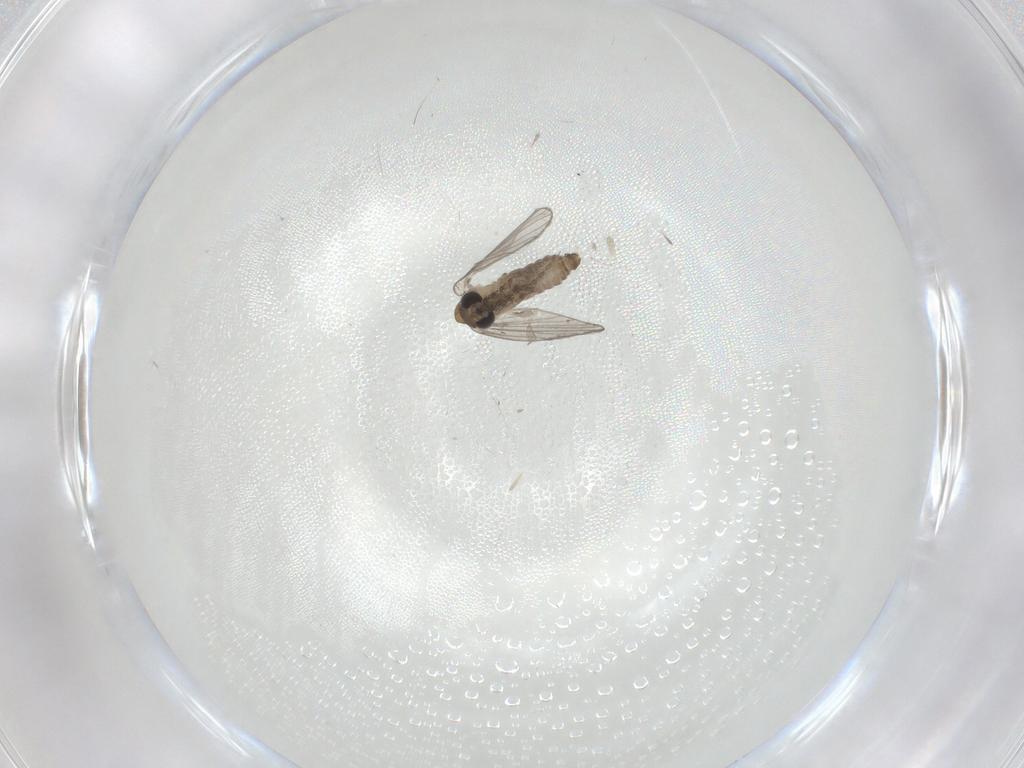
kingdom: Animalia
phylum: Arthropoda
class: Insecta
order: Diptera
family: Psychodidae
